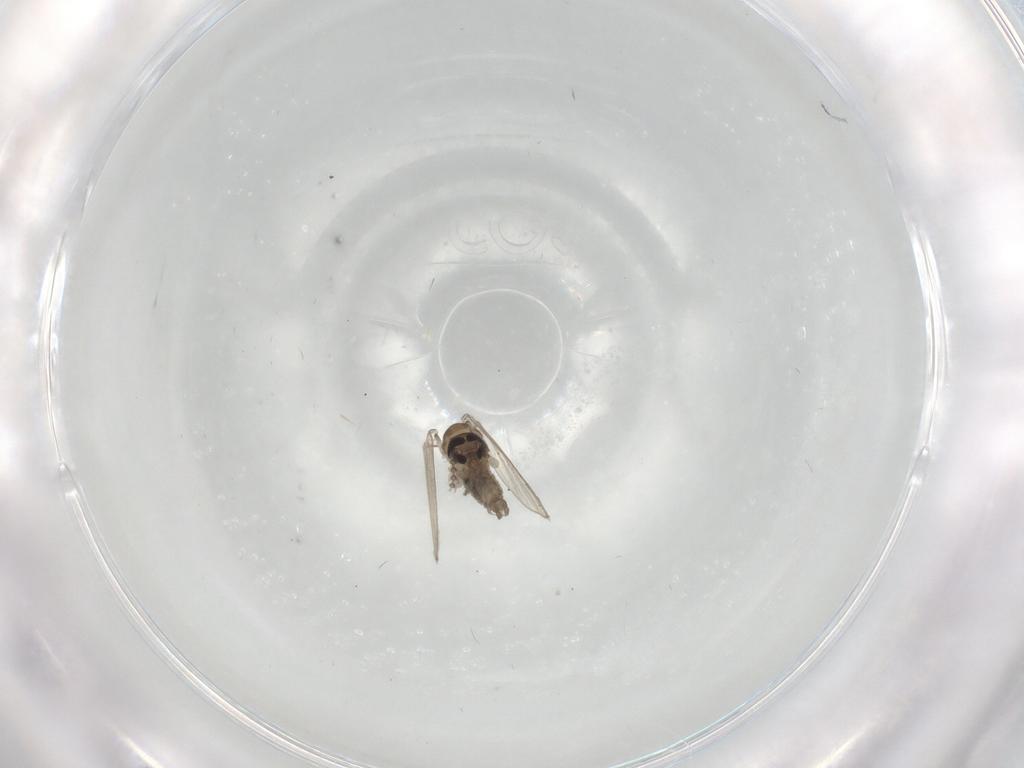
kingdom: Animalia
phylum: Arthropoda
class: Insecta
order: Diptera
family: Psychodidae
